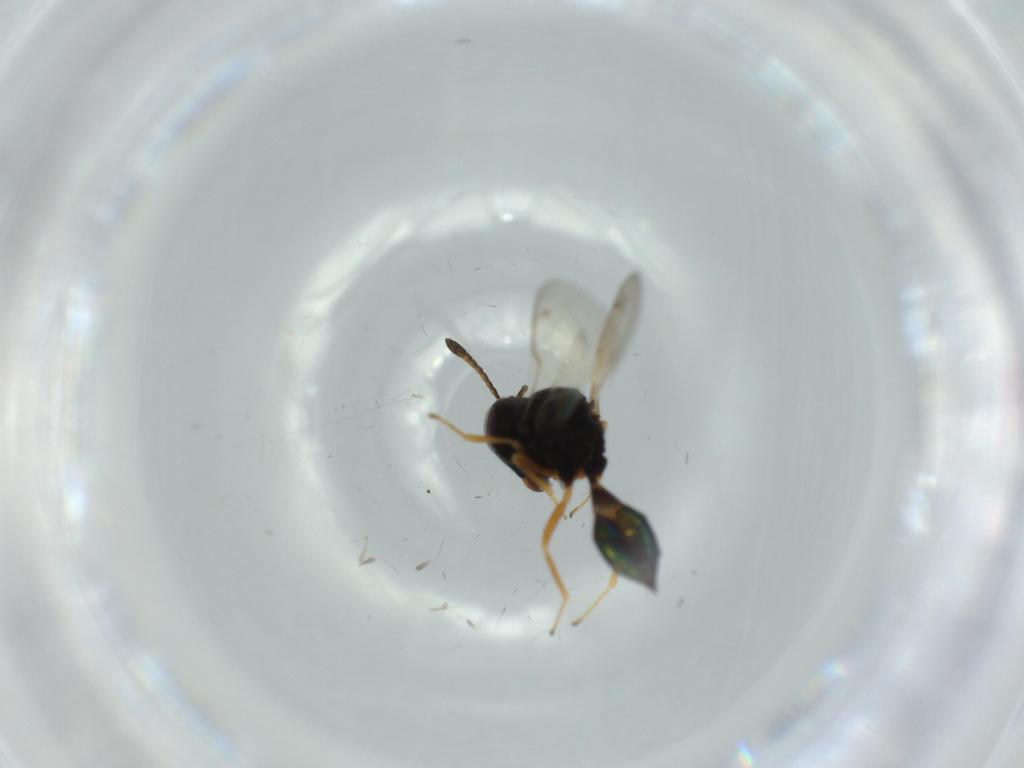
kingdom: Animalia
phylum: Arthropoda
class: Insecta
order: Hymenoptera
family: Pteromalidae
